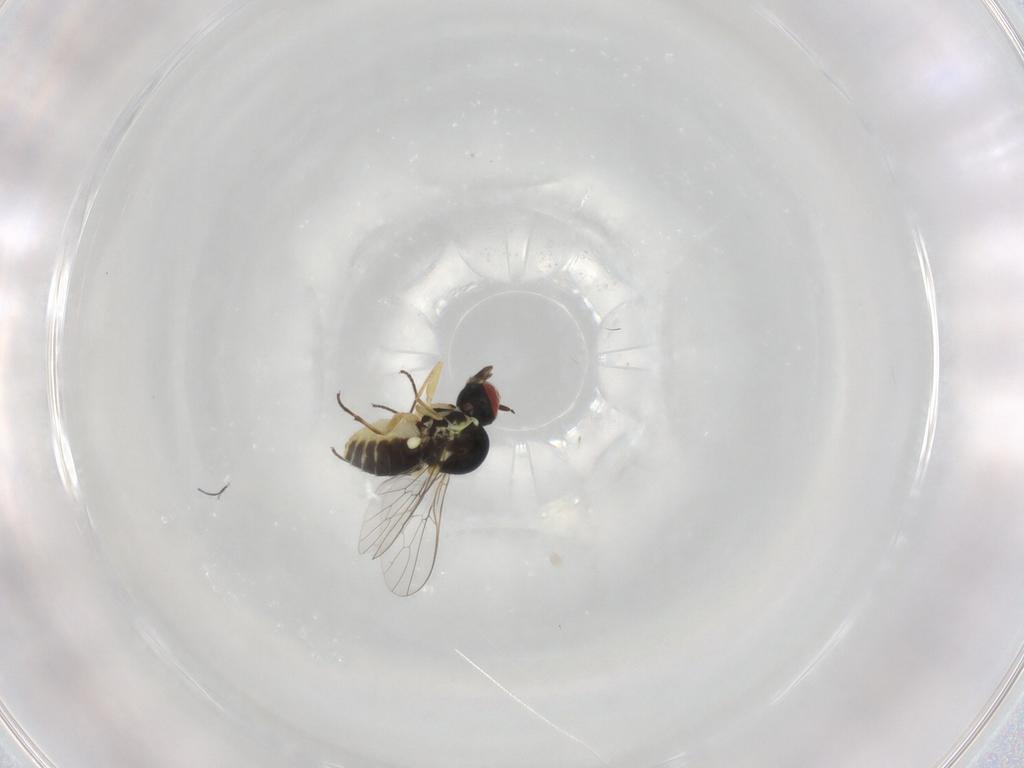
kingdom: Animalia
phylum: Arthropoda
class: Insecta
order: Diptera
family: Mythicomyiidae
